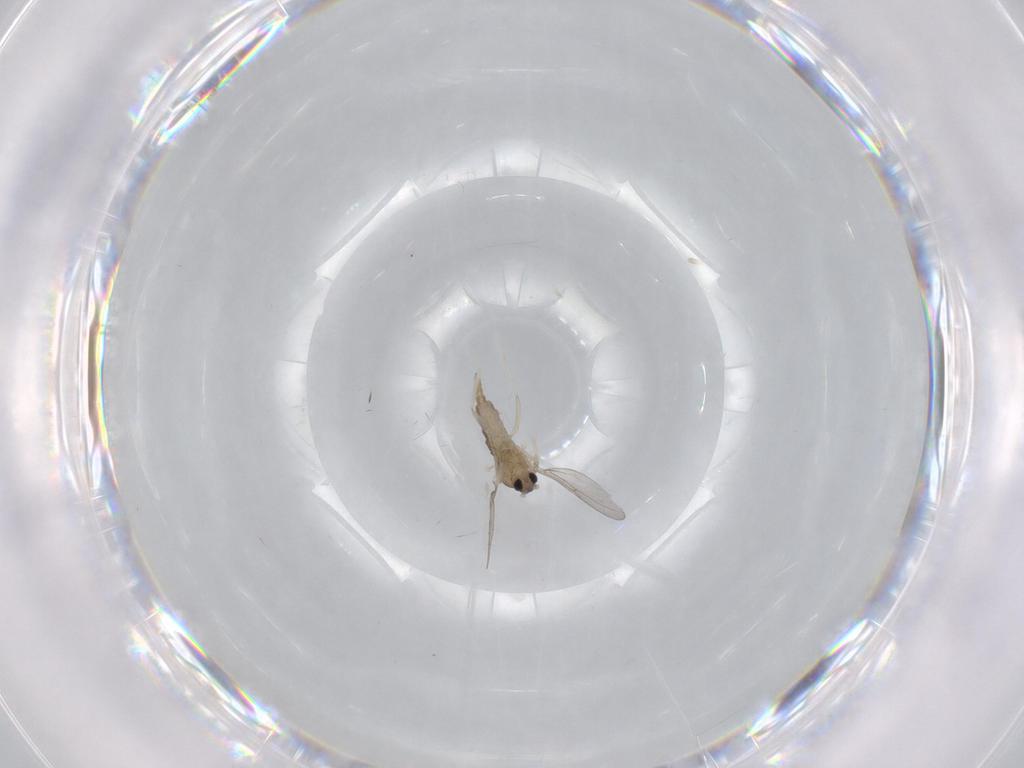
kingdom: Animalia
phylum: Arthropoda
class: Insecta
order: Diptera
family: Cecidomyiidae
